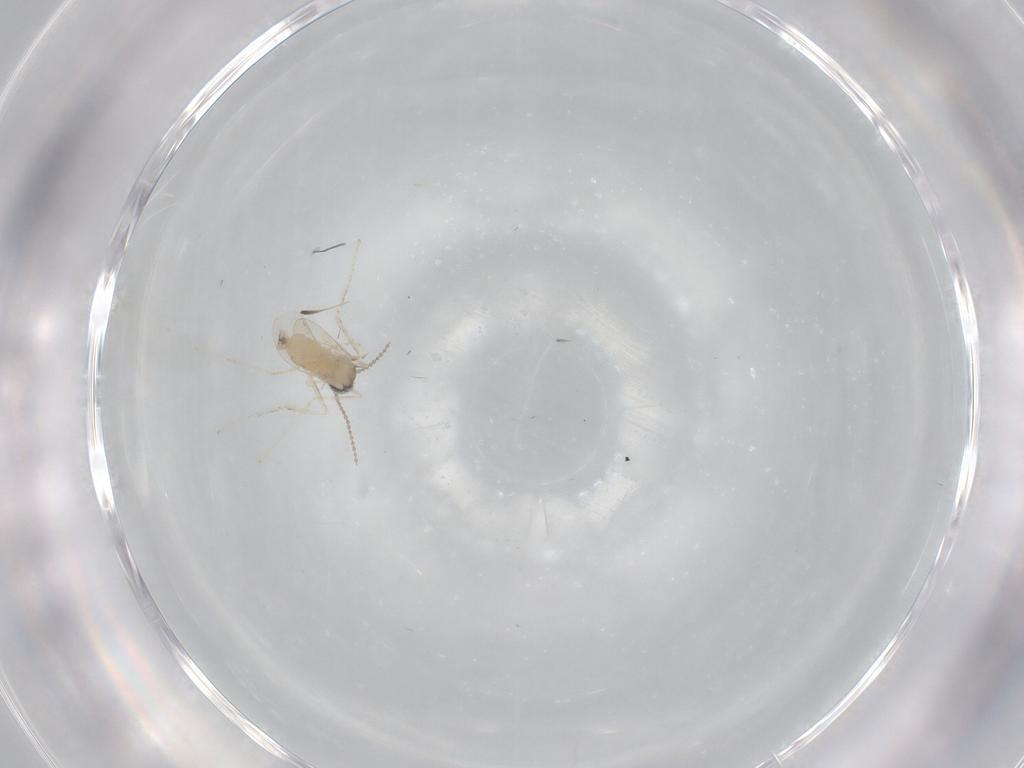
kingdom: Animalia
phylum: Arthropoda
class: Insecta
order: Diptera
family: Cecidomyiidae
